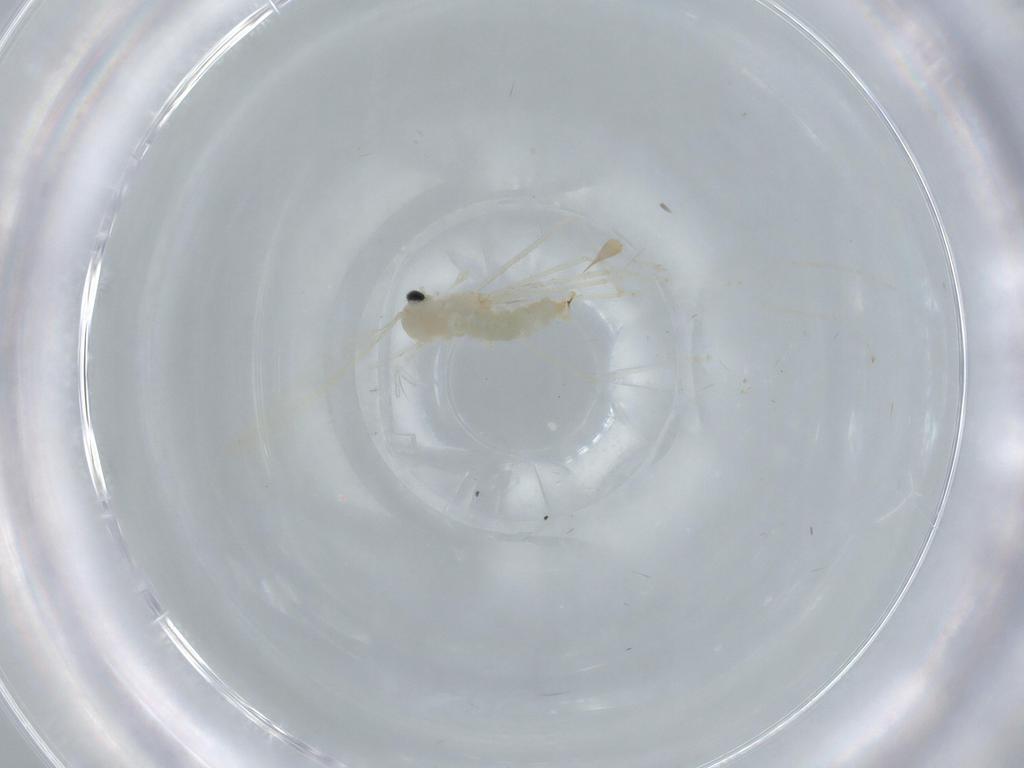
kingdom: Animalia
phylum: Arthropoda
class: Insecta
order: Diptera
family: Cecidomyiidae
